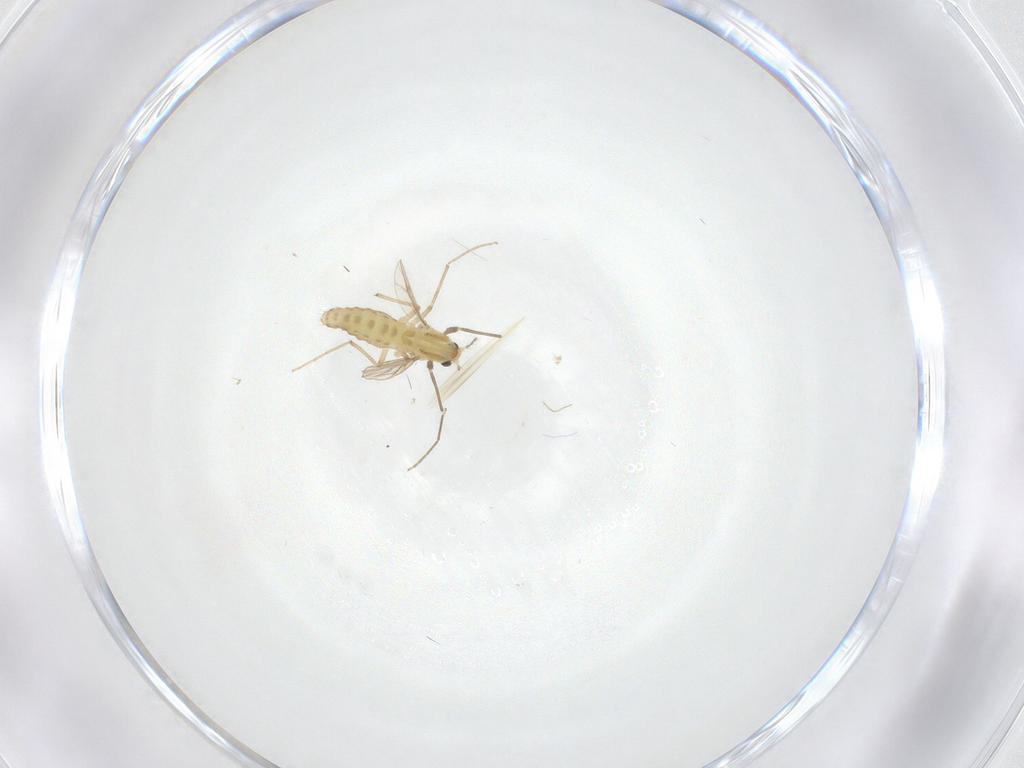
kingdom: Animalia
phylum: Arthropoda
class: Insecta
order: Diptera
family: Chironomidae
